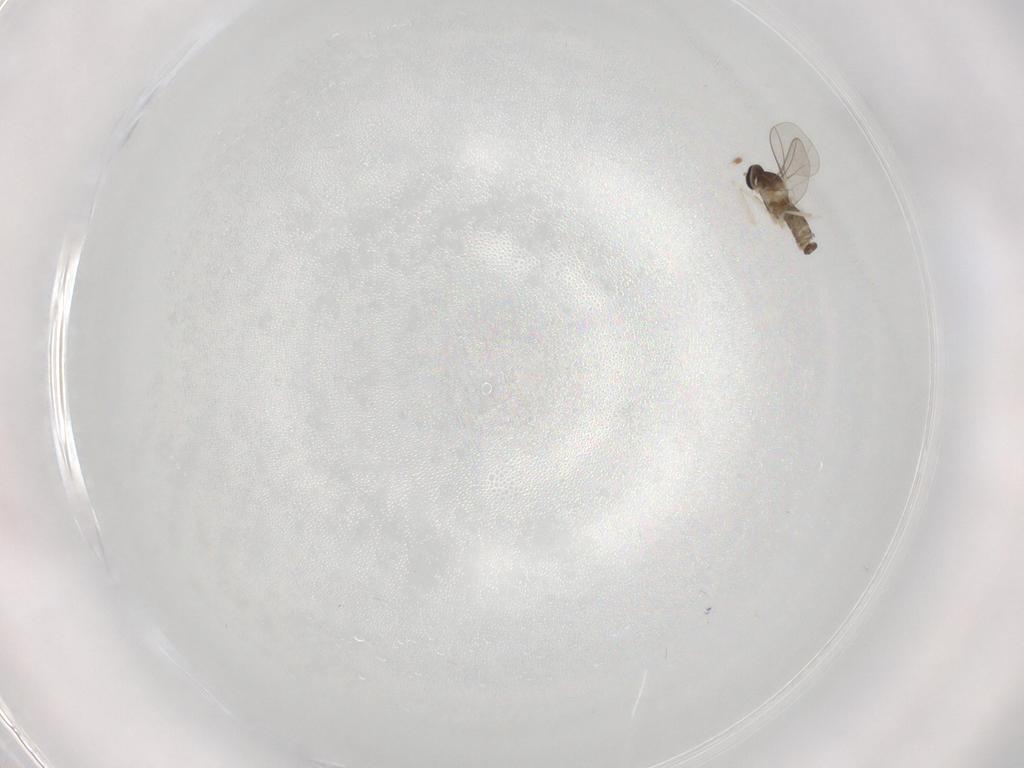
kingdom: Animalia
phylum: Arthropoda
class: Insecta
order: Diptera
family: Cecidomyiidae
